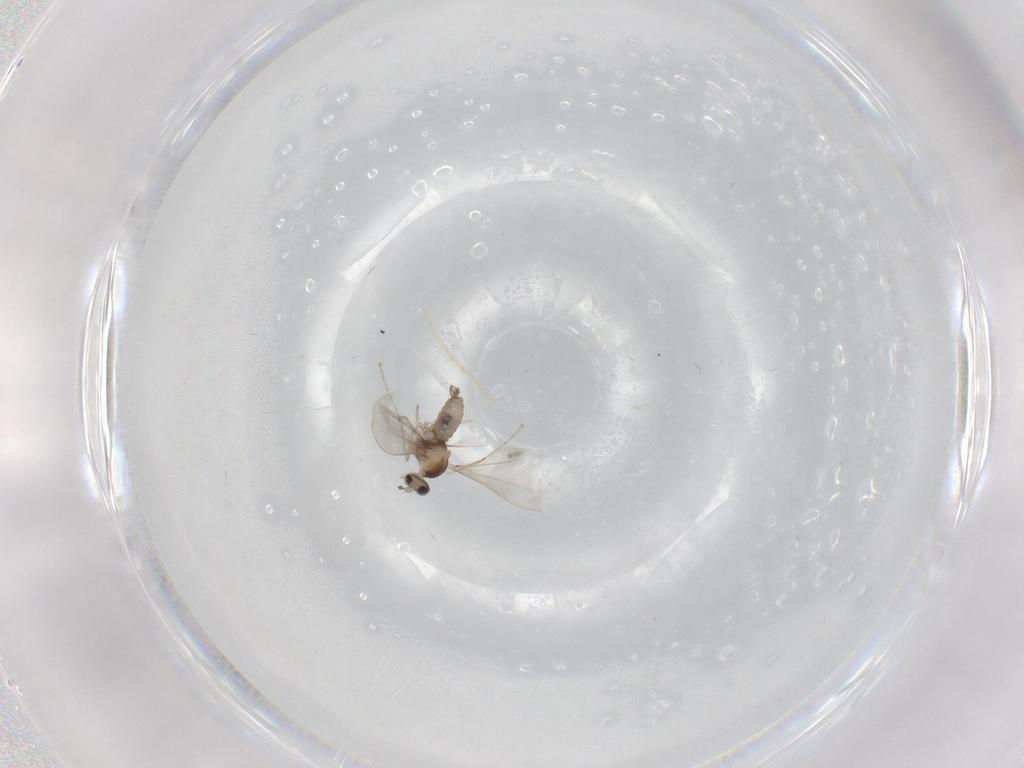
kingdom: Animalia
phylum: Arthropoda
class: Insecta
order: Diptera
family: Cecidomyiidae
